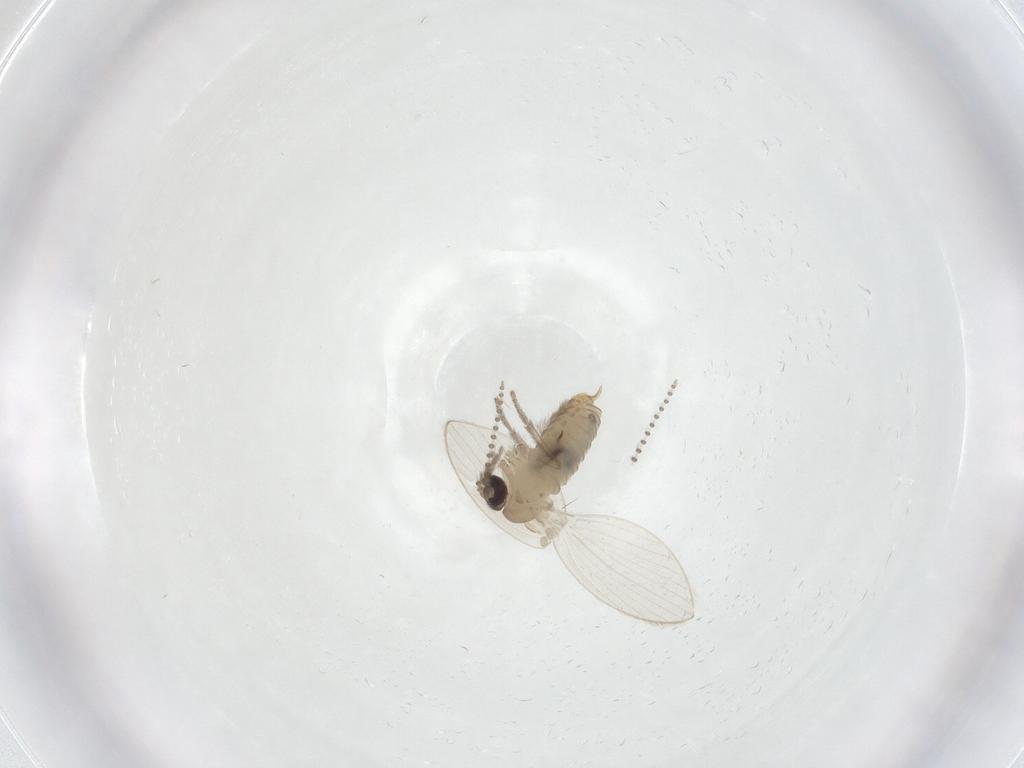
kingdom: Animalia
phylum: Arthropoda
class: Insecta
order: Diptera
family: Psychodidae
